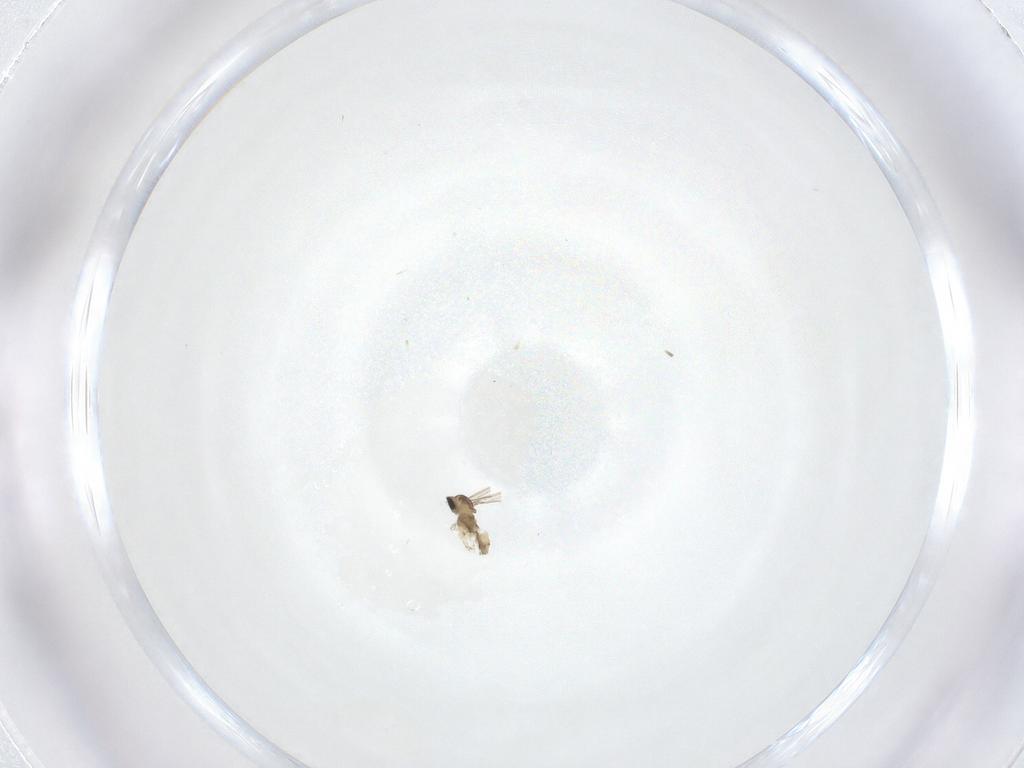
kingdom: Animalia
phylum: Arthropoda
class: Insecta
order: Diptera
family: Cecidomyiidae
